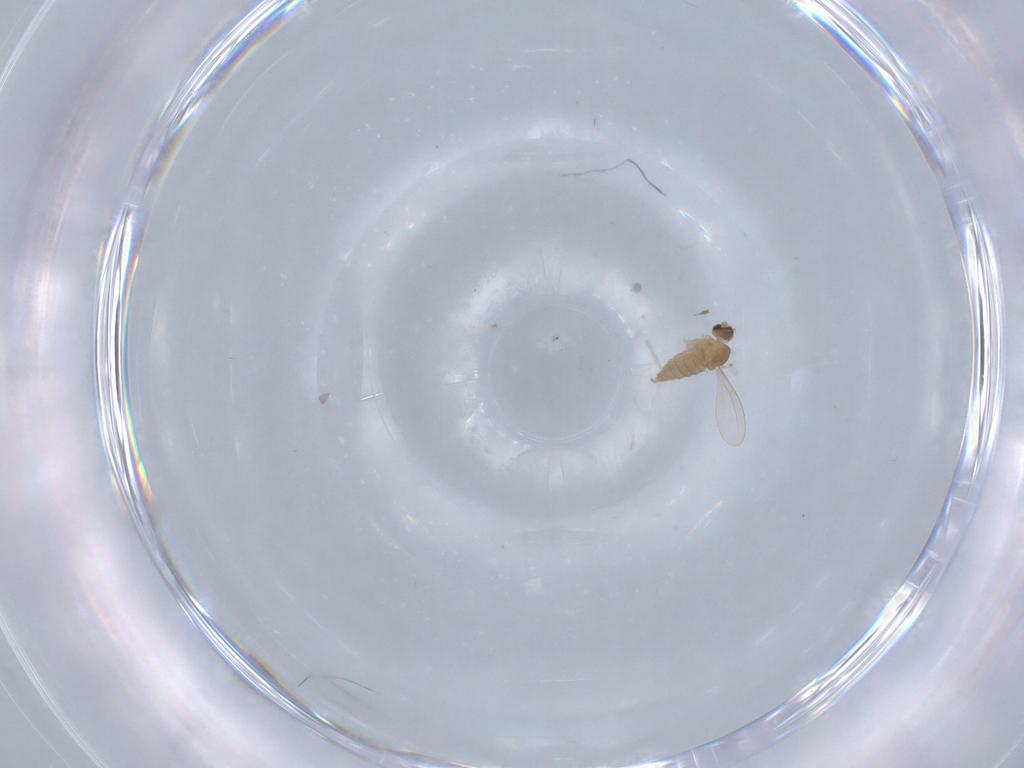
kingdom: Animalia
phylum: Arthropoda
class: Insecta
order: Diptera
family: Cecidomyiidae
